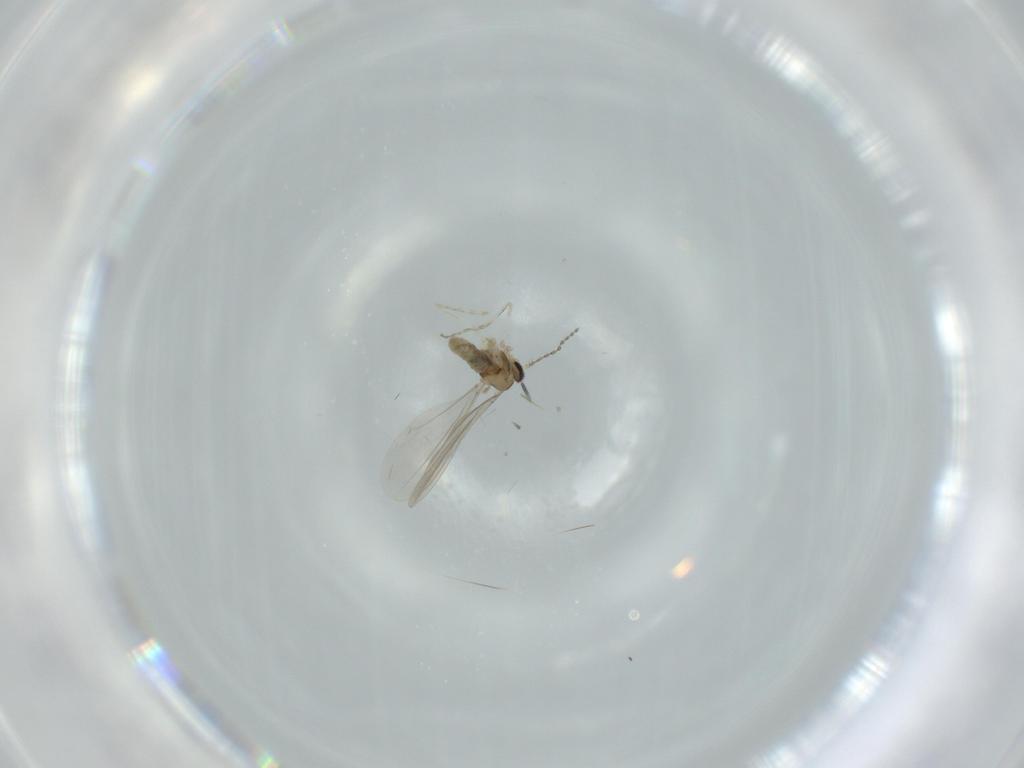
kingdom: Animalia
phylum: Arthropoda
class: Insecta
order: Diptera
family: Cecidomyiidae
